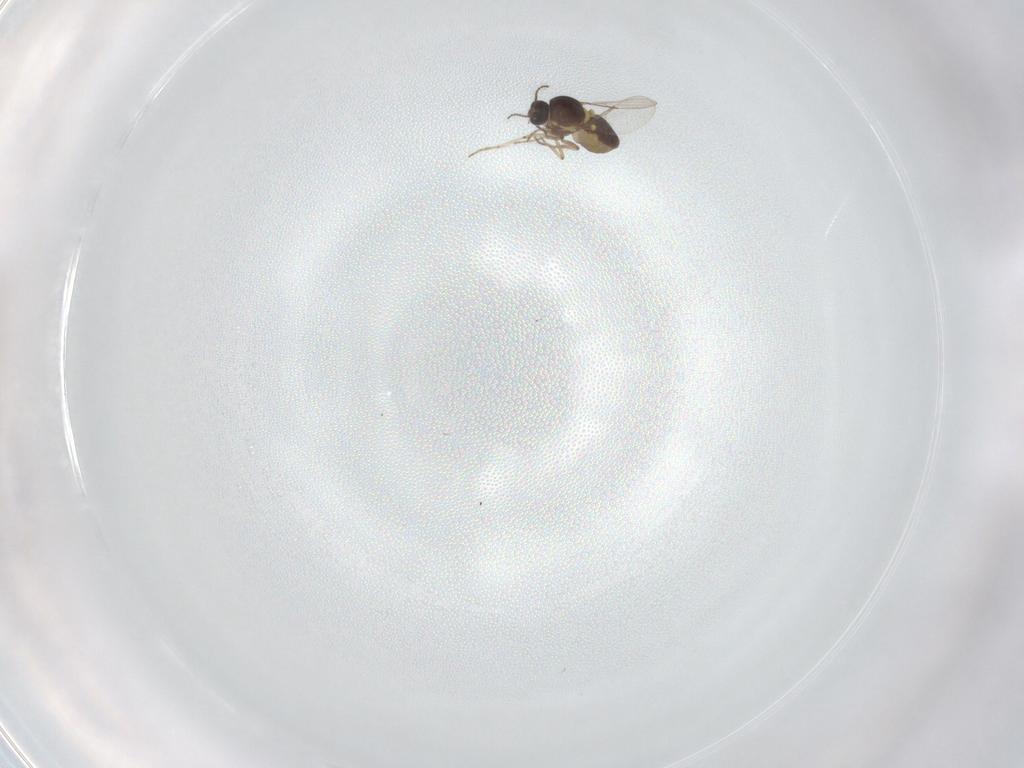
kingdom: Animalia
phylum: Arthropoda
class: Insecta
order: Diptera
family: Ceratopogonidae
